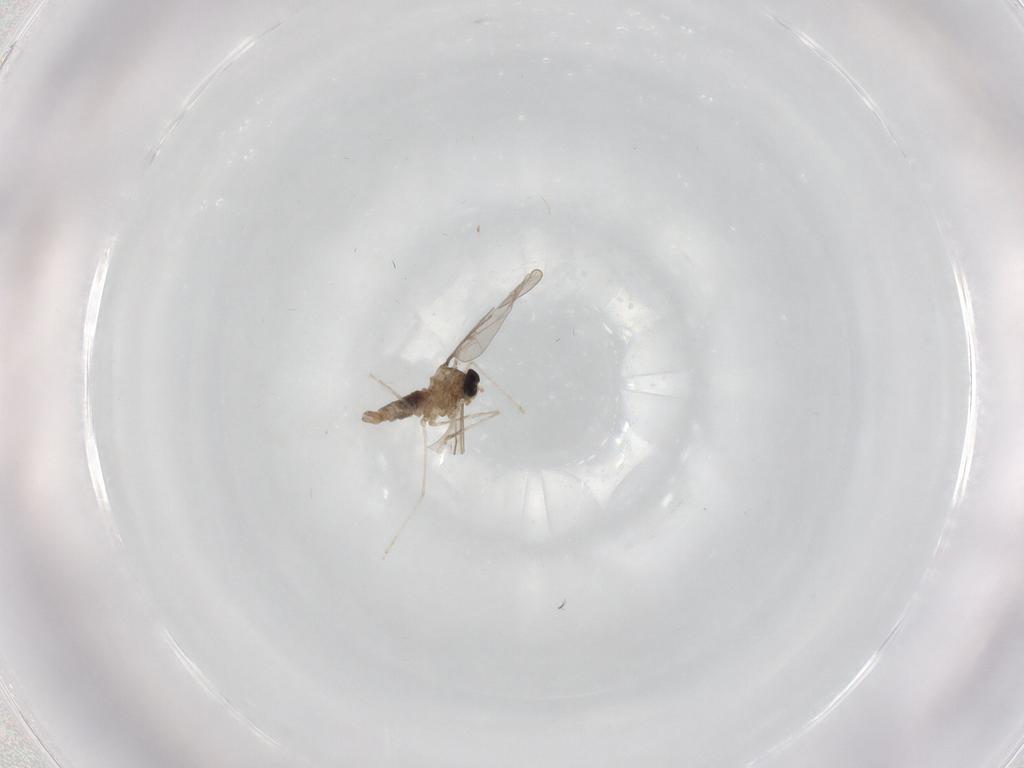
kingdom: Animalia
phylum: Arthropoda
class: Insecta
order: Diptera
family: Cecidomyiidae
